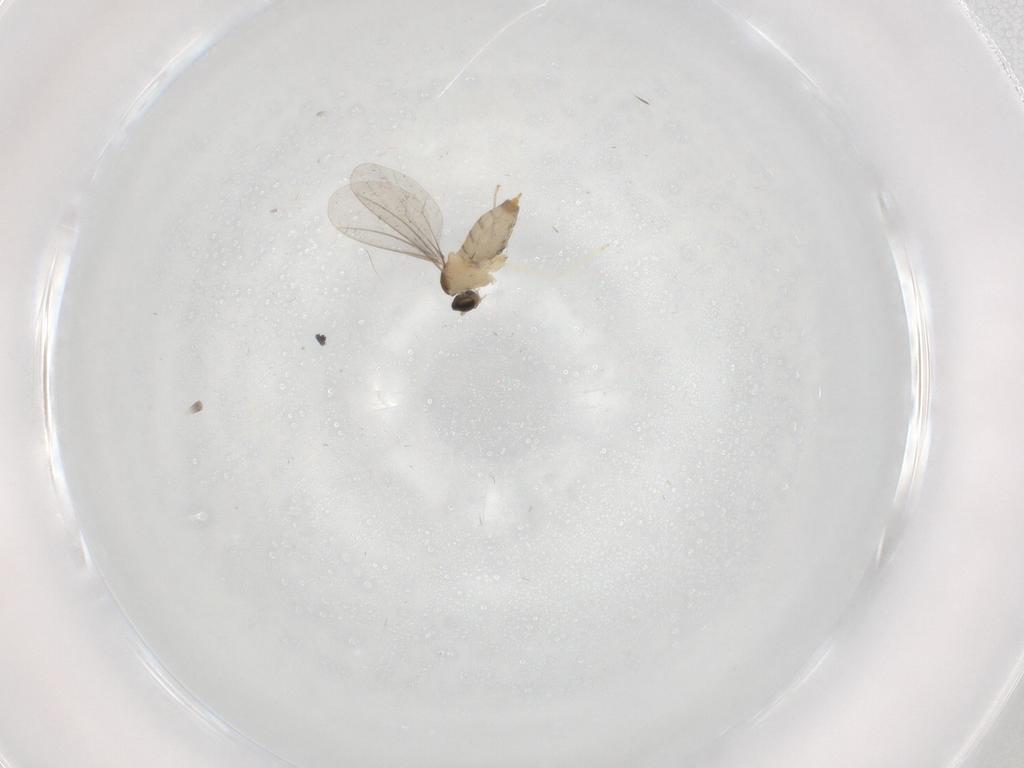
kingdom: Animalia
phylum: Arthropoda
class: Insecta
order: Diptera
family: Cecidomyiidae
